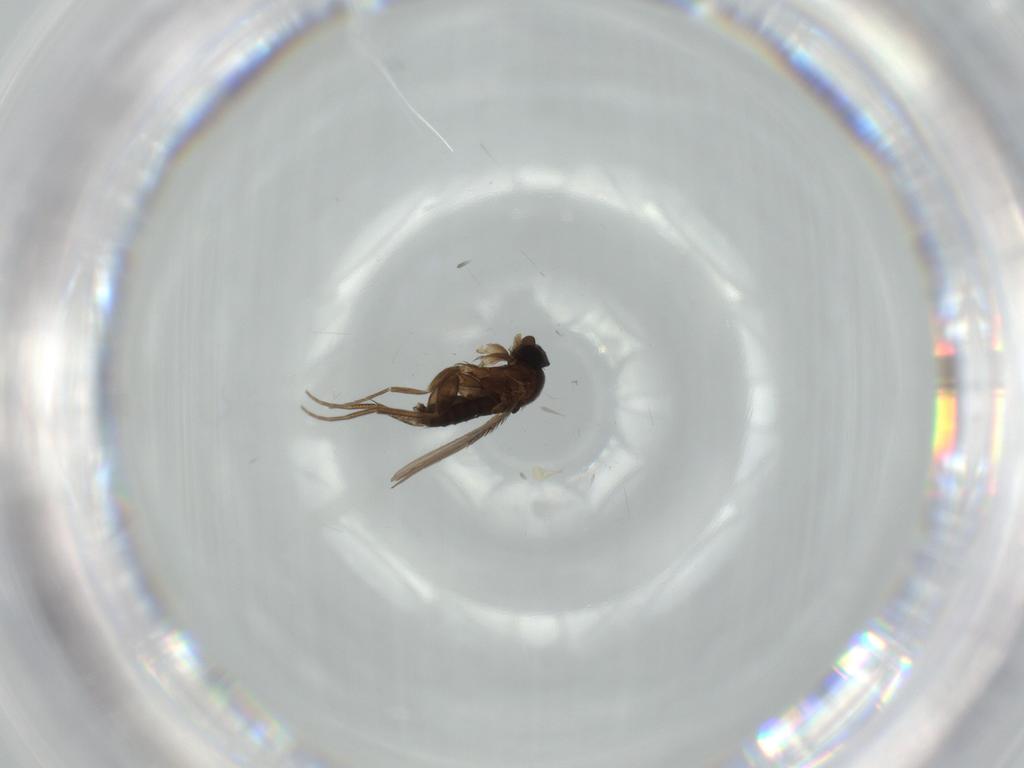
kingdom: Animalia
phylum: Arthropoda
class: Insecta
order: Diptera
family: Phoridae
